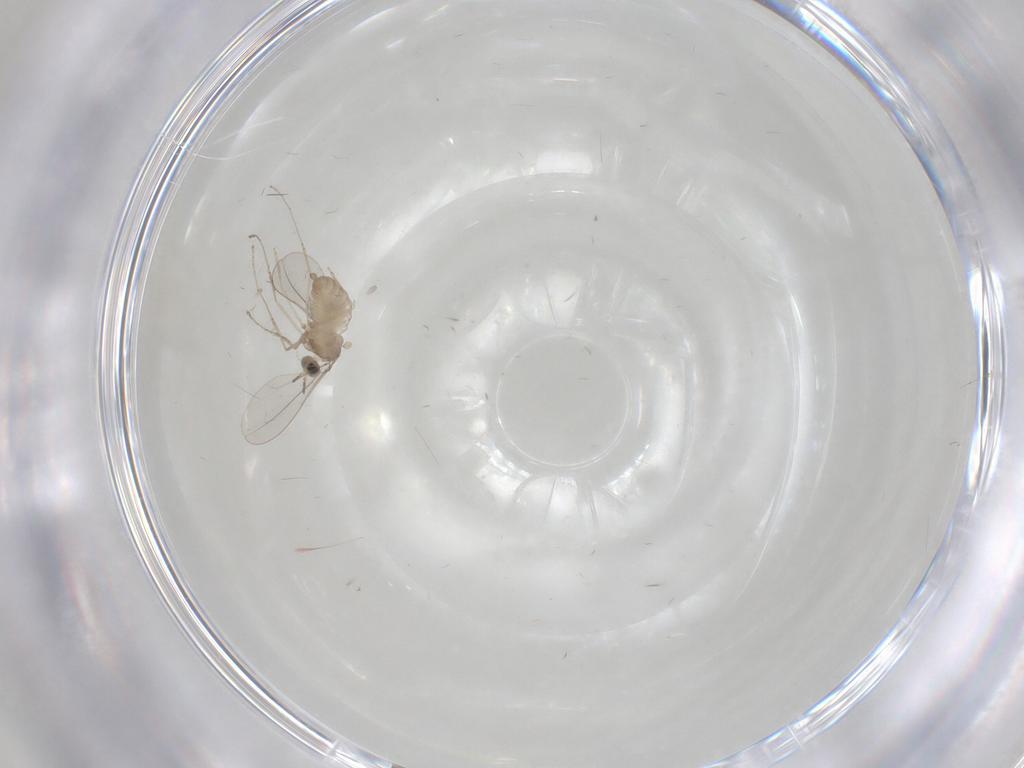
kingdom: Animalia
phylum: Arthropoda
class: Insecta
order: Diptera
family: Cecidomyiidae
